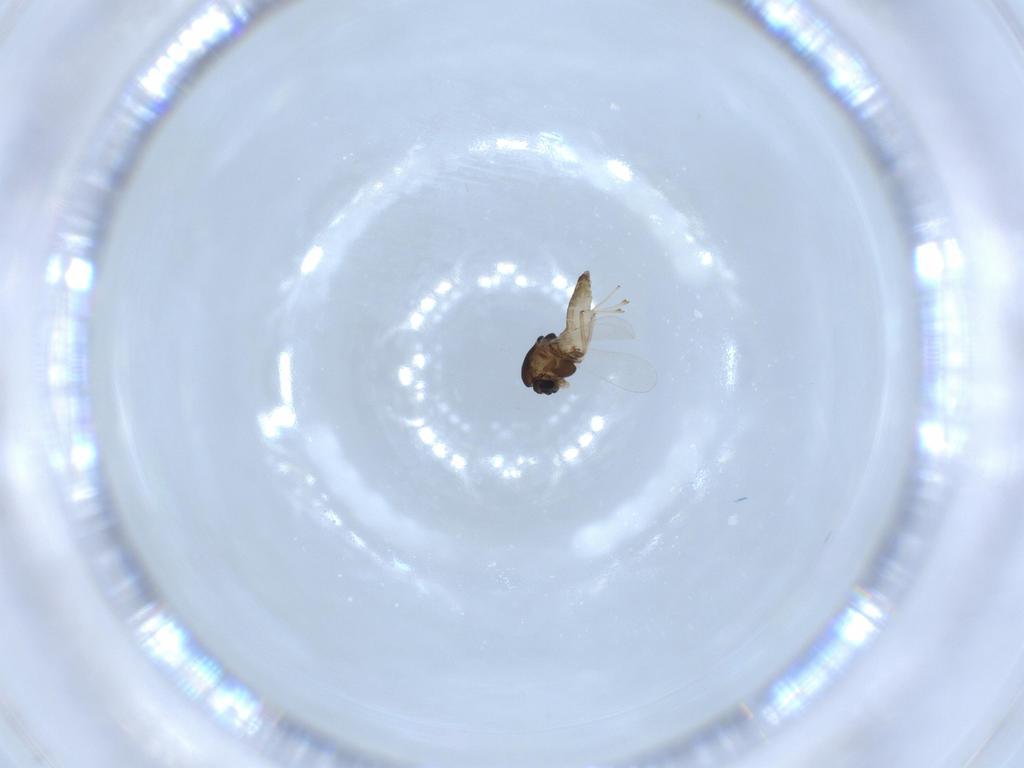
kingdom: Animalia
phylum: Arthropoda
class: Insecta
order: Diptera
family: Chironomidae
